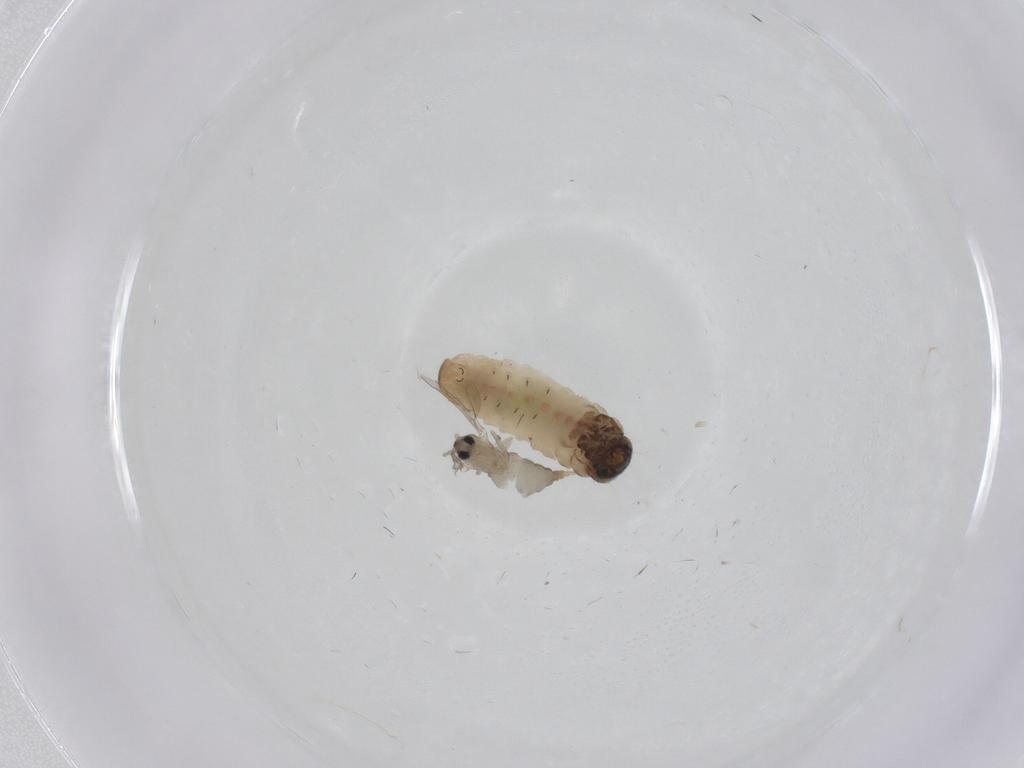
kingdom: Animalia
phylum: Arthropoda
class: Insecta
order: Diptera
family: Cecidomyiidae
